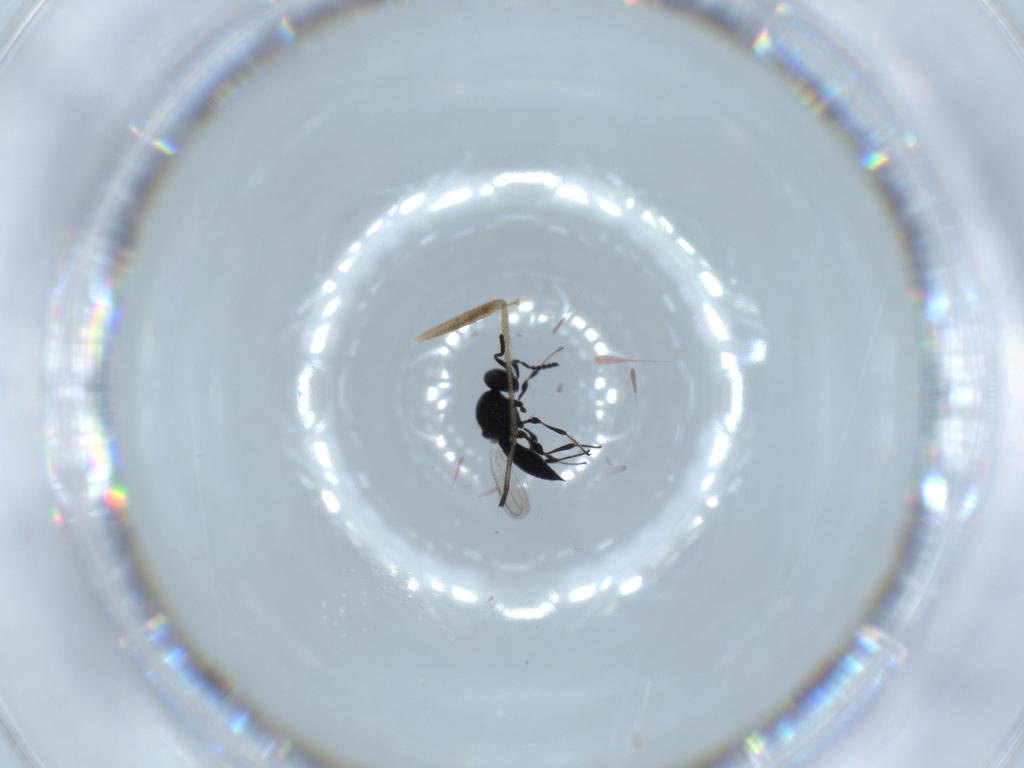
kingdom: Animalia
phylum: Arthropoda
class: Insecta
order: Hymenoptera
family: Platygastridae
